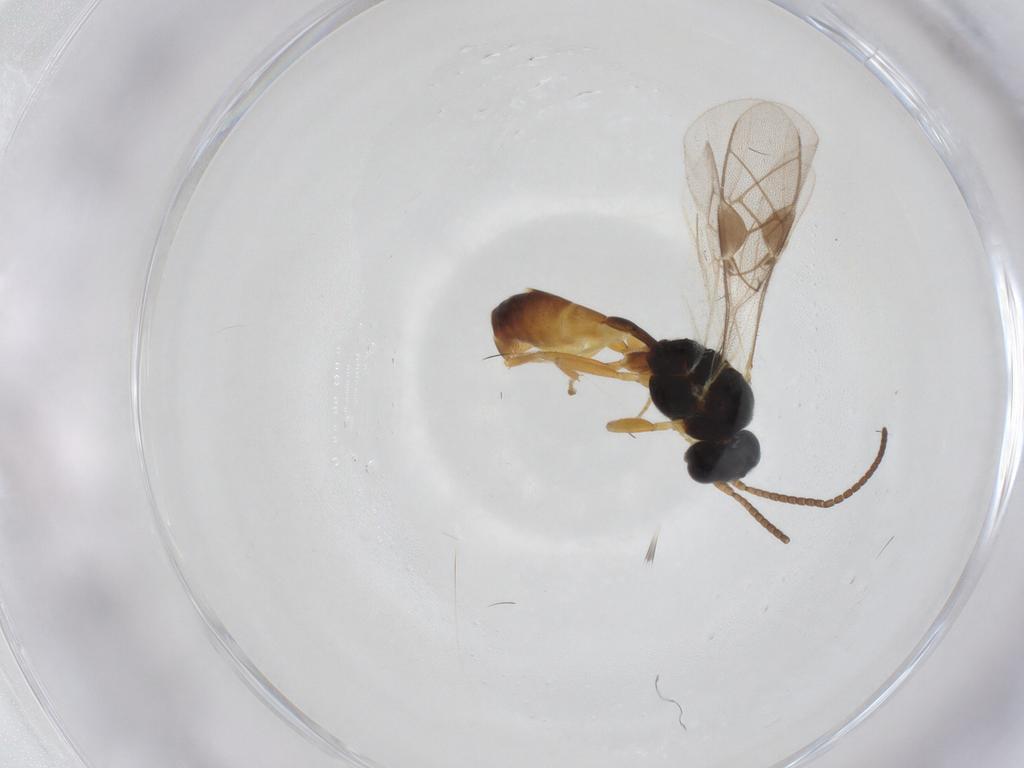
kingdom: Animalia
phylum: Arthropoda
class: Insecta
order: Hymenoptera
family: Ichneumonidae
